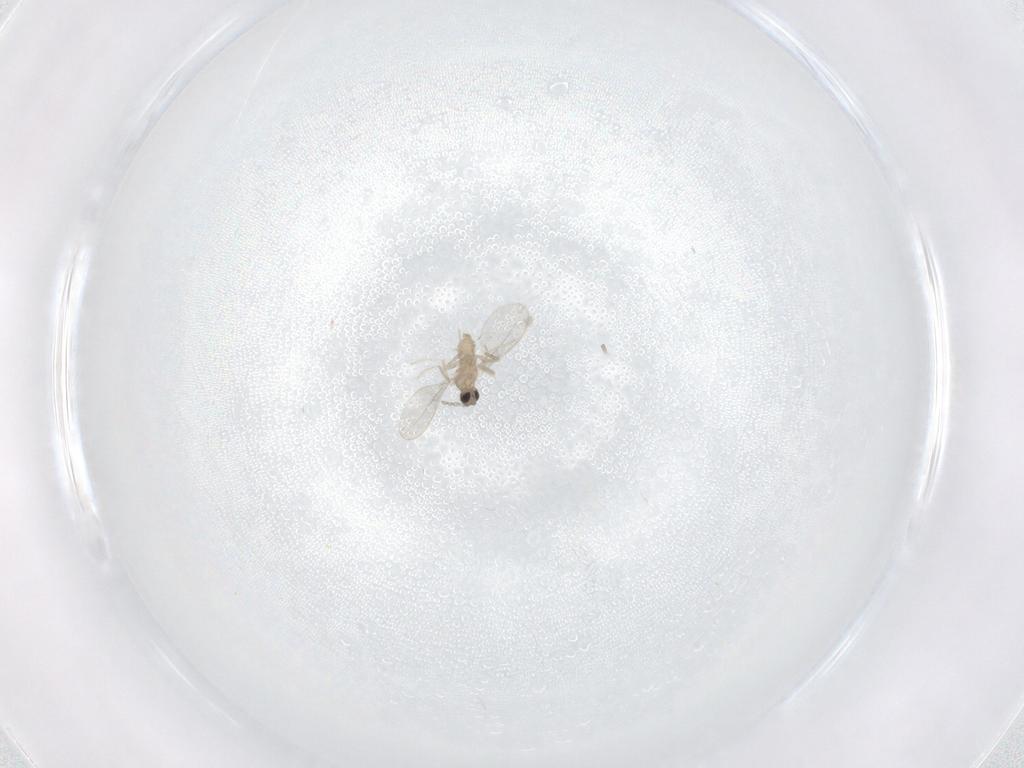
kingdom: Animalia
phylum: Arthropoda
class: Insecta
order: Diptera
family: Cecidomyiidae
